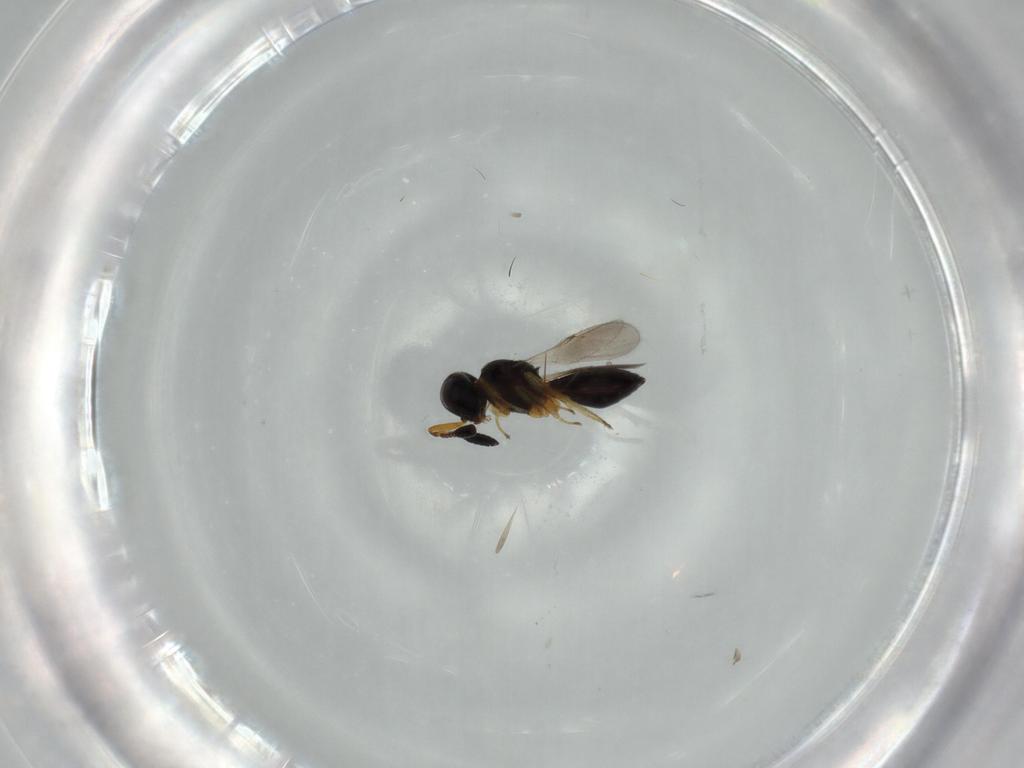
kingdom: Animalia
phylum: Arthropoda
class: Insecta
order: Hymenoptera
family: Scelionidae
